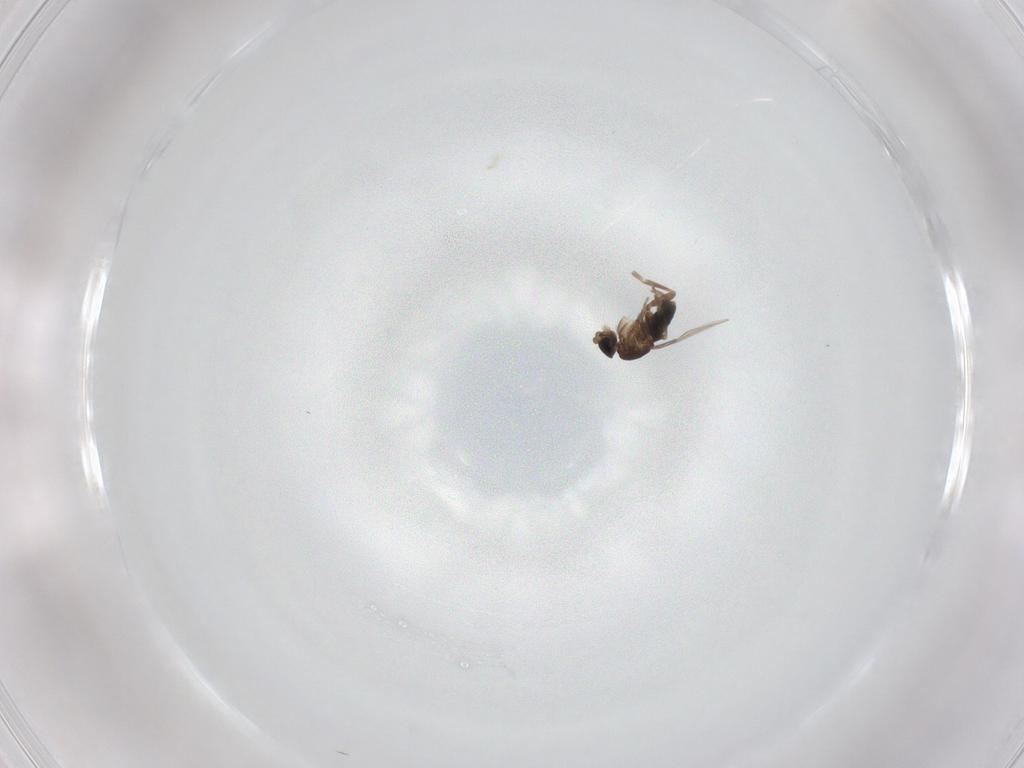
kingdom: Animalia
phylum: Arthropoda
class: Insecta
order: Diptera
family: Phoridae
